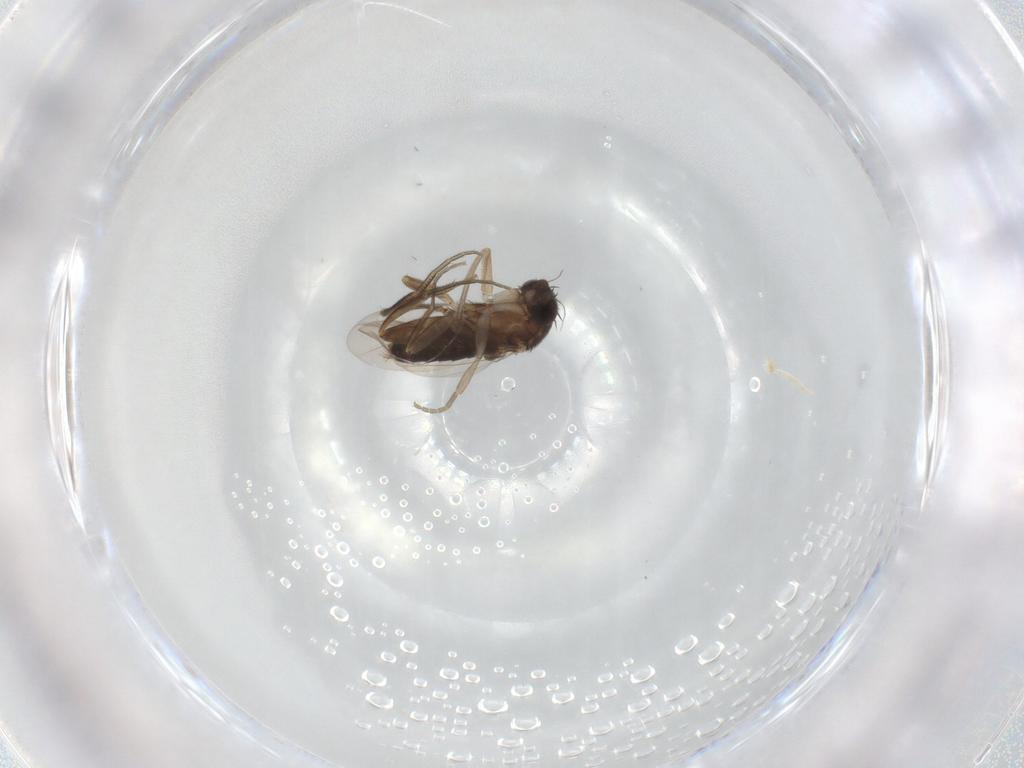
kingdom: Animalia
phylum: Arthropoda
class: Insecta
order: Diptera
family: Phoridae
